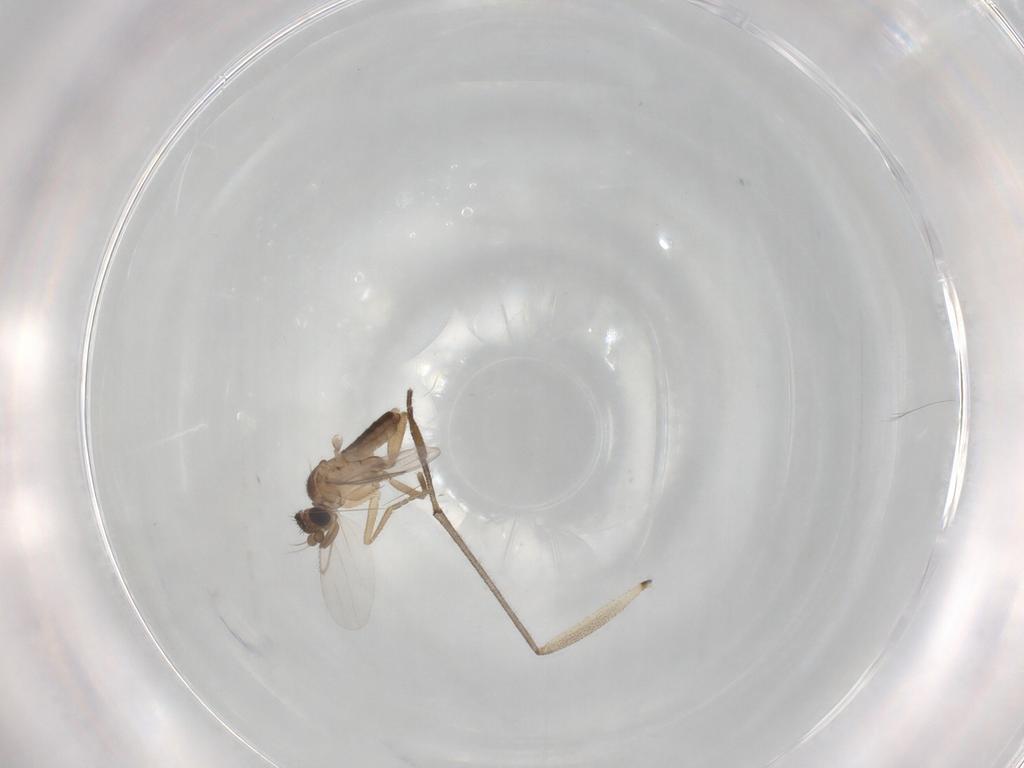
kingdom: Animalia
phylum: Arthropoda
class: Insecta
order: Diptera
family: Phoridae
